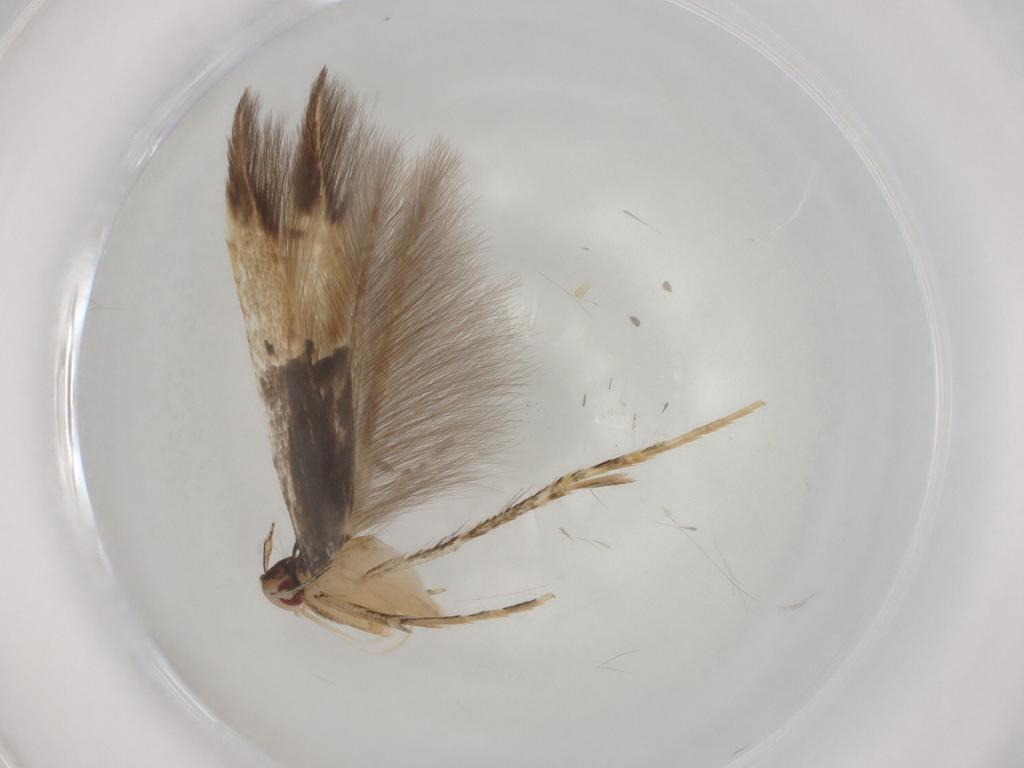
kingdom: Animalia
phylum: Arthropoda
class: Insecta
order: Lepidoptera
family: Cosmopterigidae
